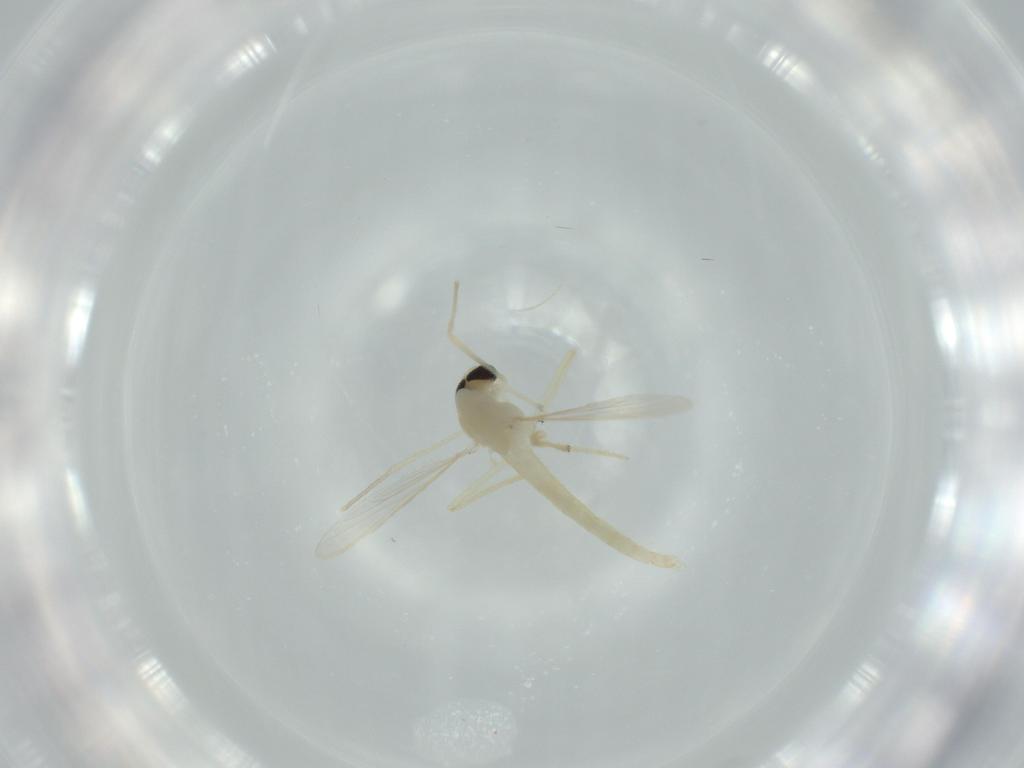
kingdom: Animalia
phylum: Arthropoda
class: Insecta
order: Diptera
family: Chironomidae
